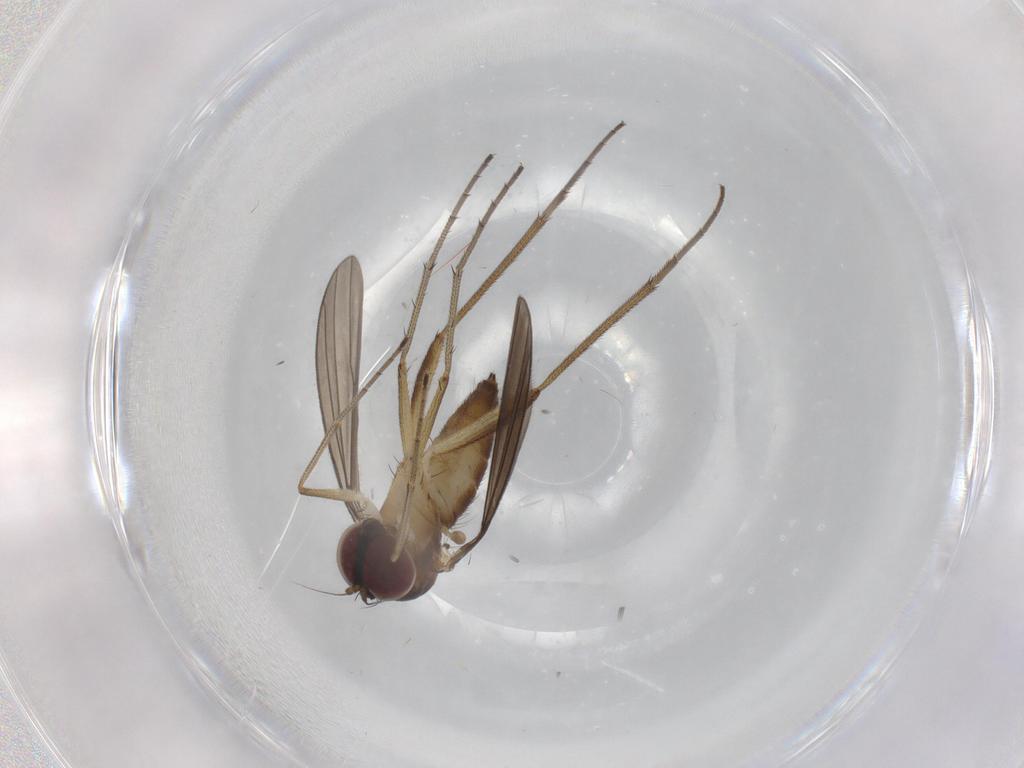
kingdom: Animalia
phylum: Arthropoda
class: Insecta
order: Diptera
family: Dolichopodidae
